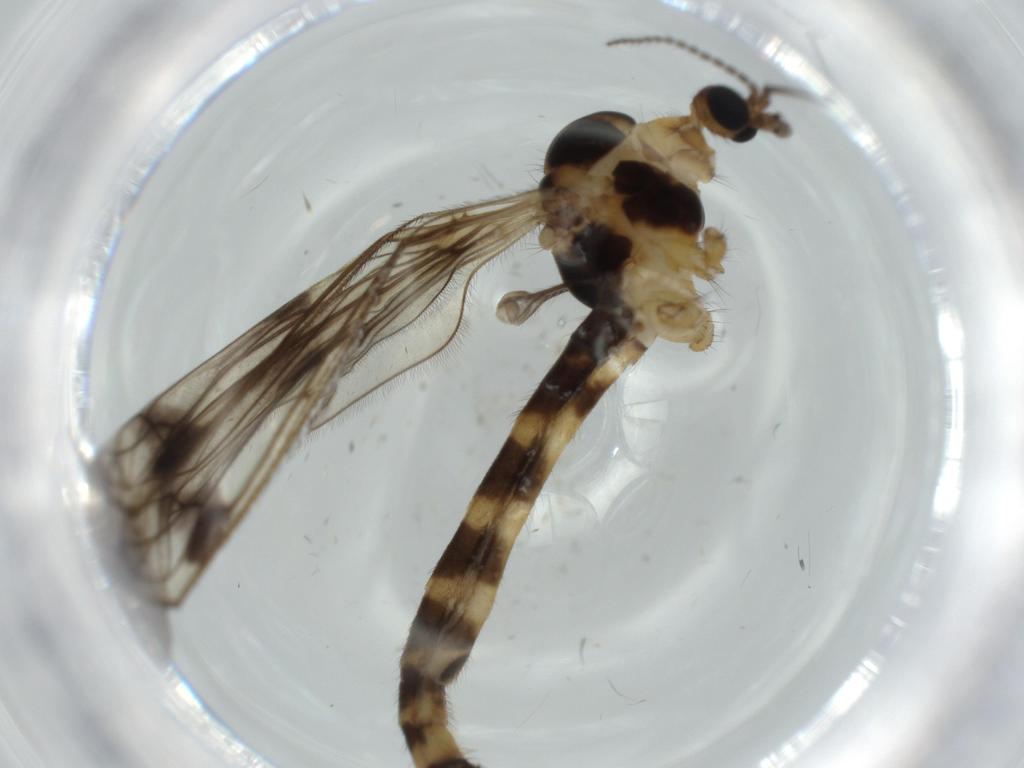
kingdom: Animalia
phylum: Arthropoda
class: Insecta
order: Diptera
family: Limoniidae
